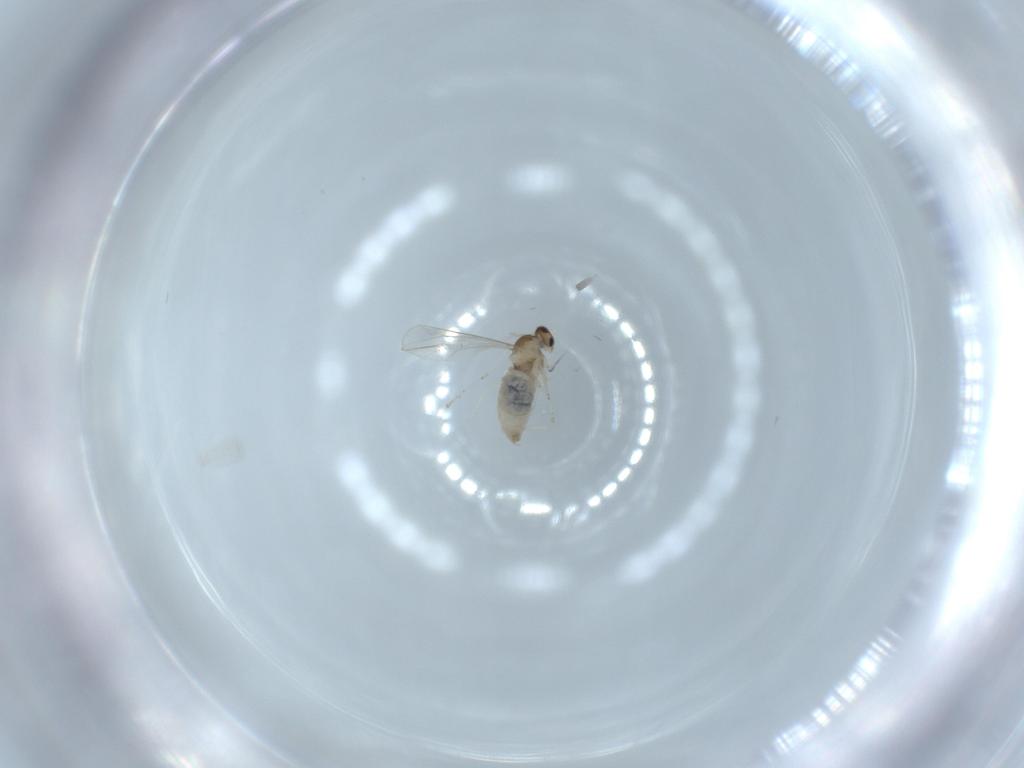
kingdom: Animalia
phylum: Arthropoda
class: Insecta
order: Diptera
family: Cecidomyiidae
